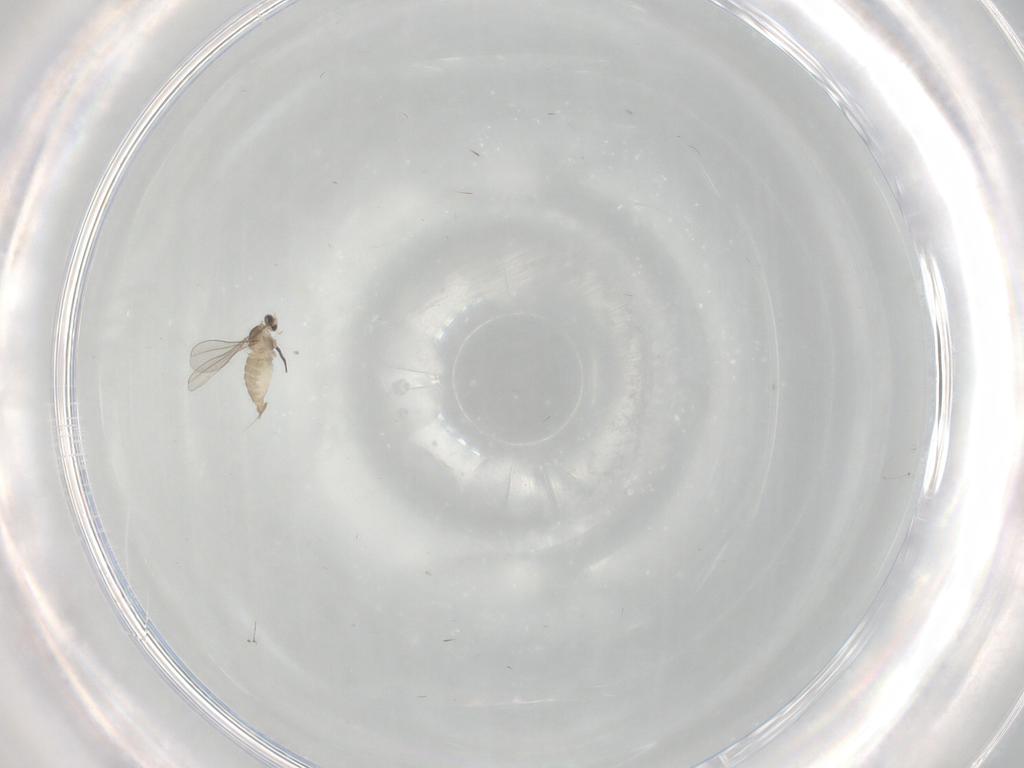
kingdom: Animalia
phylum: Arthropoda
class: Insecta
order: Diptera
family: Cecidomyiidae
